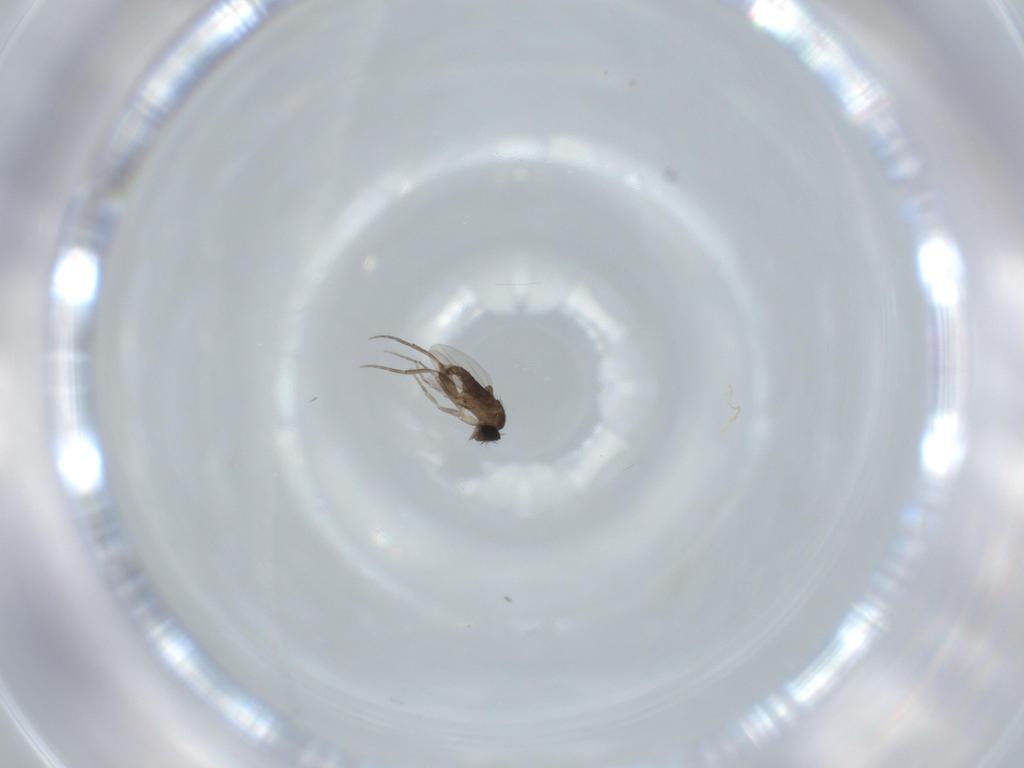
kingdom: Animalia
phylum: Arthropoda
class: Insecta
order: Diptera
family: Phoridae
